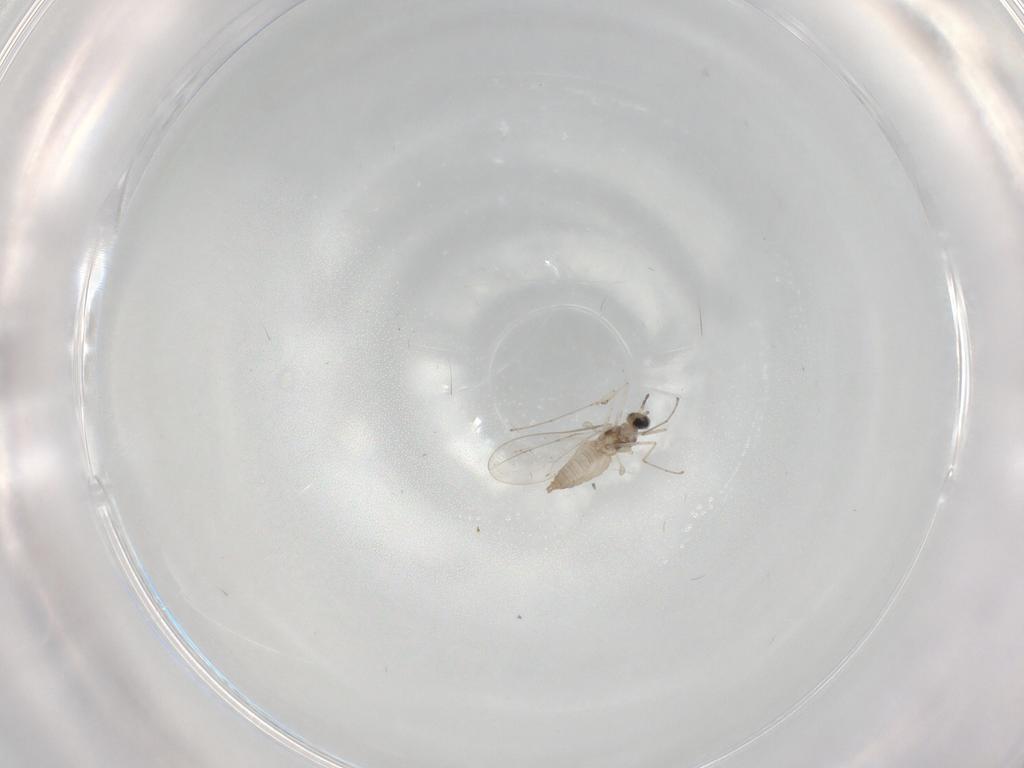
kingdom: Animalia
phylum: Arthropoda
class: Insecta
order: Diptera
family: Cecidomyiidae
